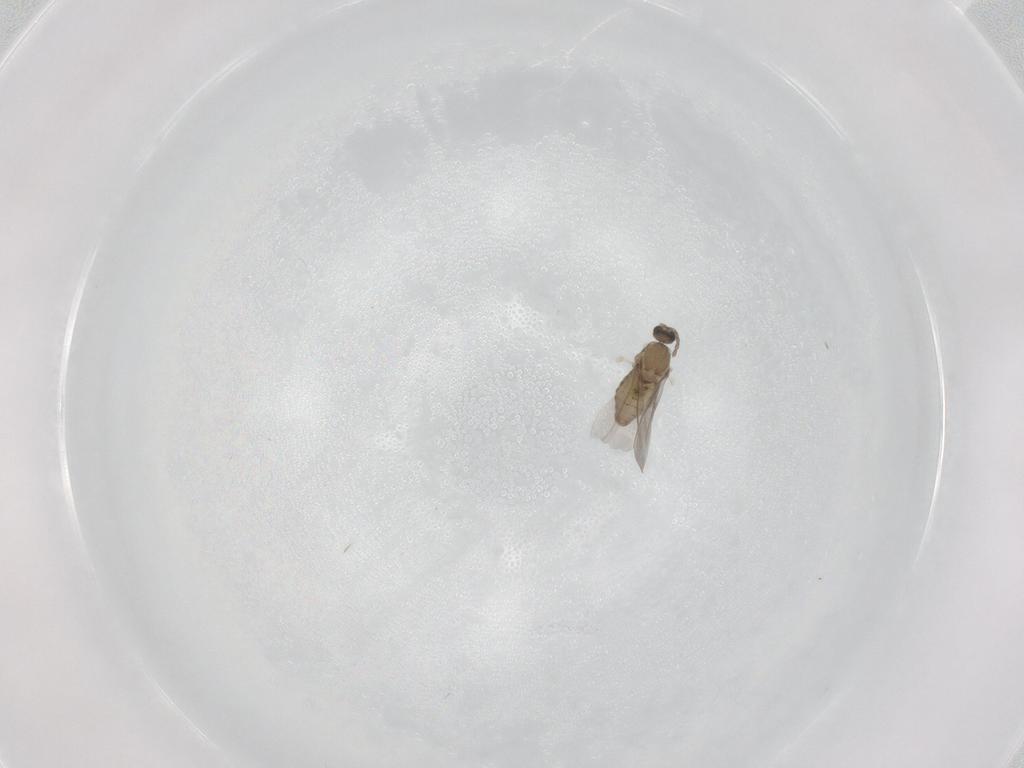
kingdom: Animalia
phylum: Arthropoda
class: Insecta
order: Diptera
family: Cecidomyiidae
